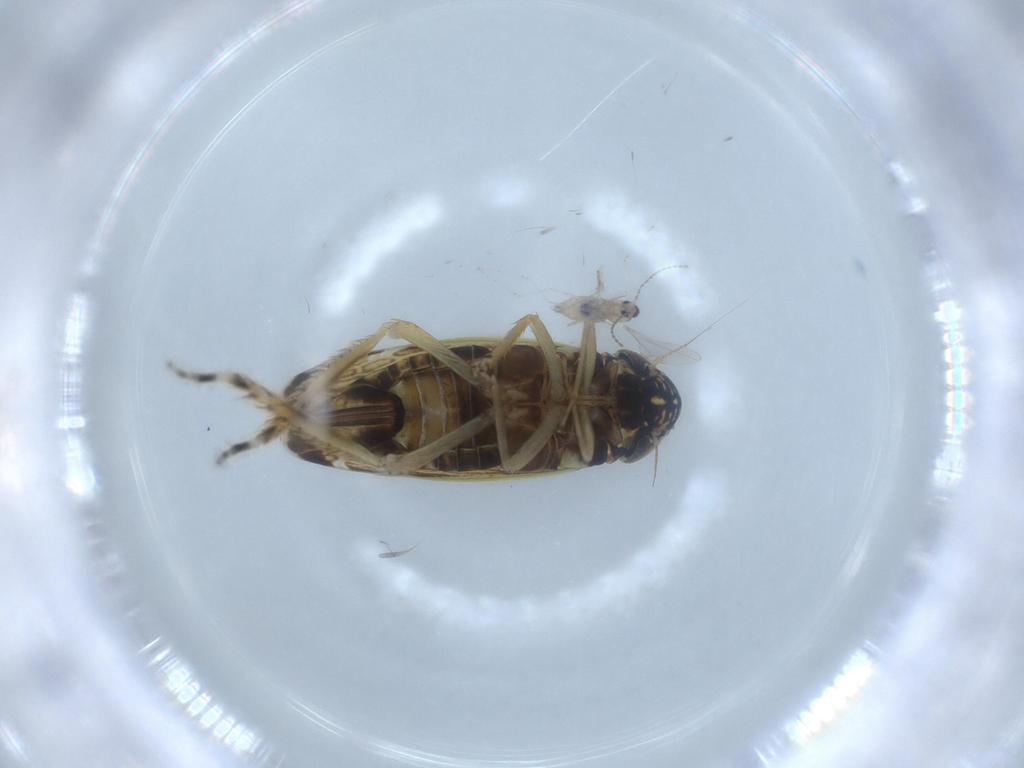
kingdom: Animalia
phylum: Arthropoda
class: Insecta
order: Hemiptera
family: Cicadellidae
